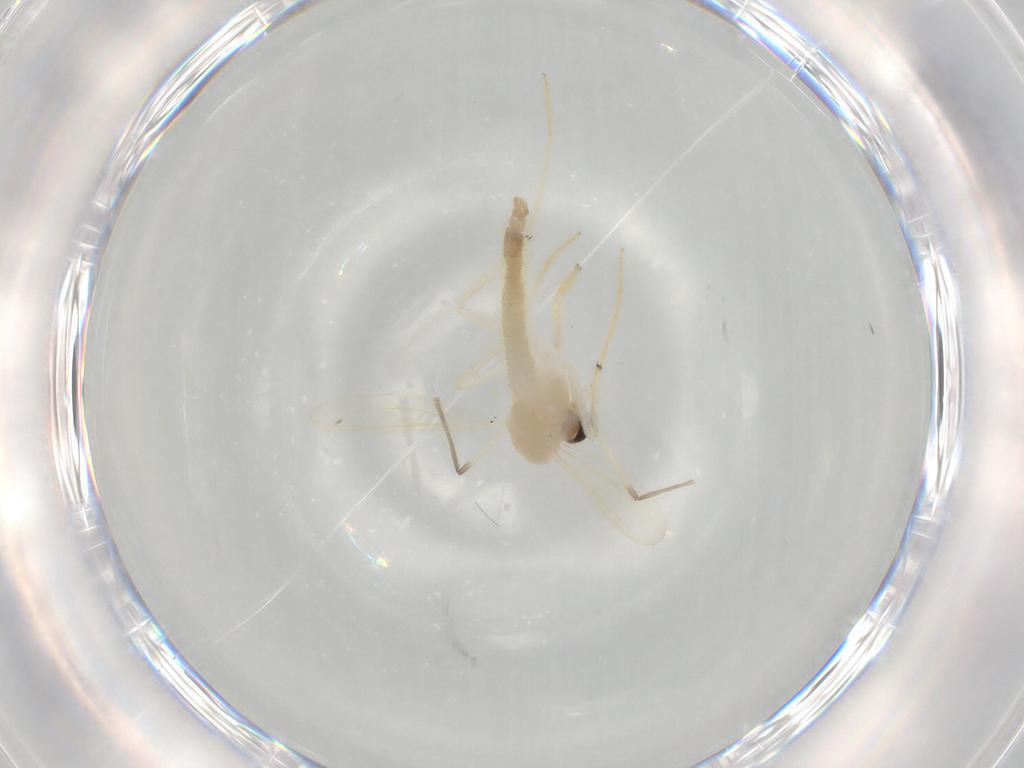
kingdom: Animalia
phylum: Arthropoda
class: Insecta
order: Diptera
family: Chironomidae
